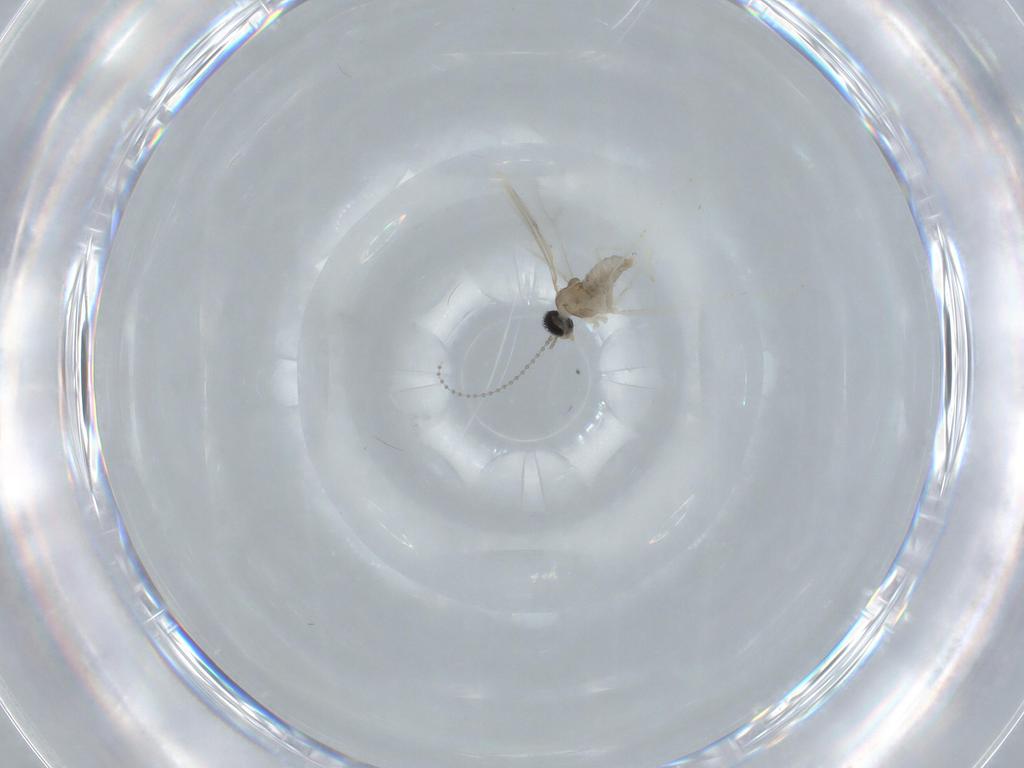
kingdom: Animalia
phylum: Arthropoda
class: Insecta
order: Diptera
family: Cecidomyiidae
